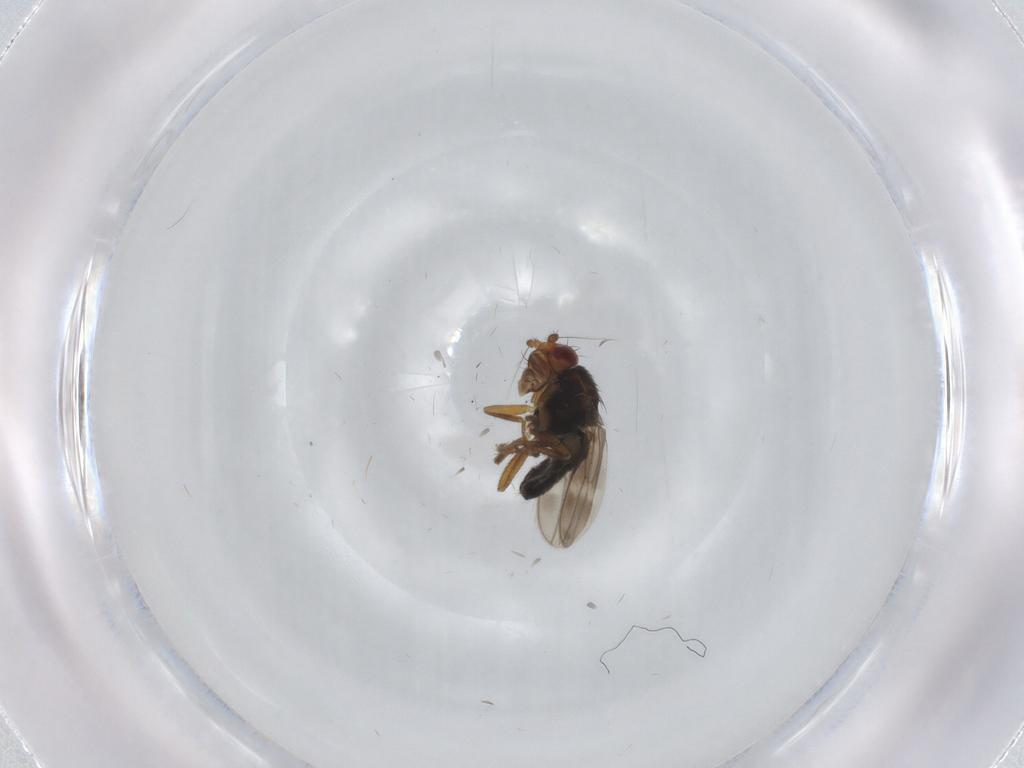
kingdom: Animalia
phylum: Arthropoda
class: Insecta
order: Diptera
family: Sphaeroceridae
